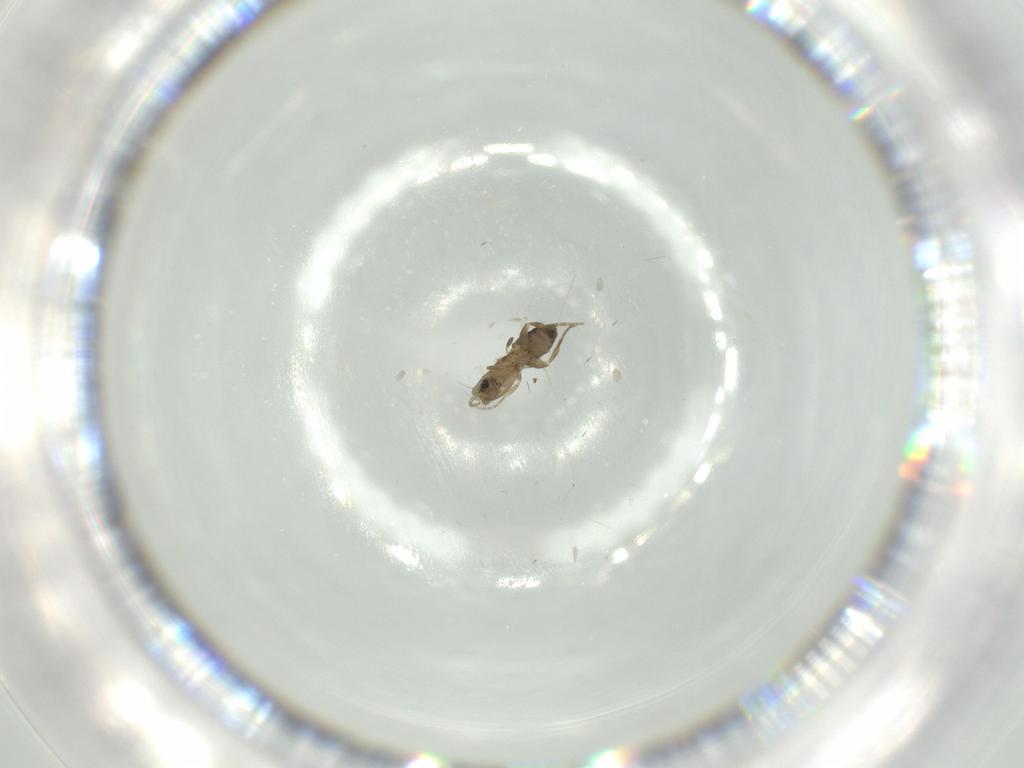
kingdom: Animalia
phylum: Arthropoda
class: Insecta
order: Diptera
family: Phoridae
